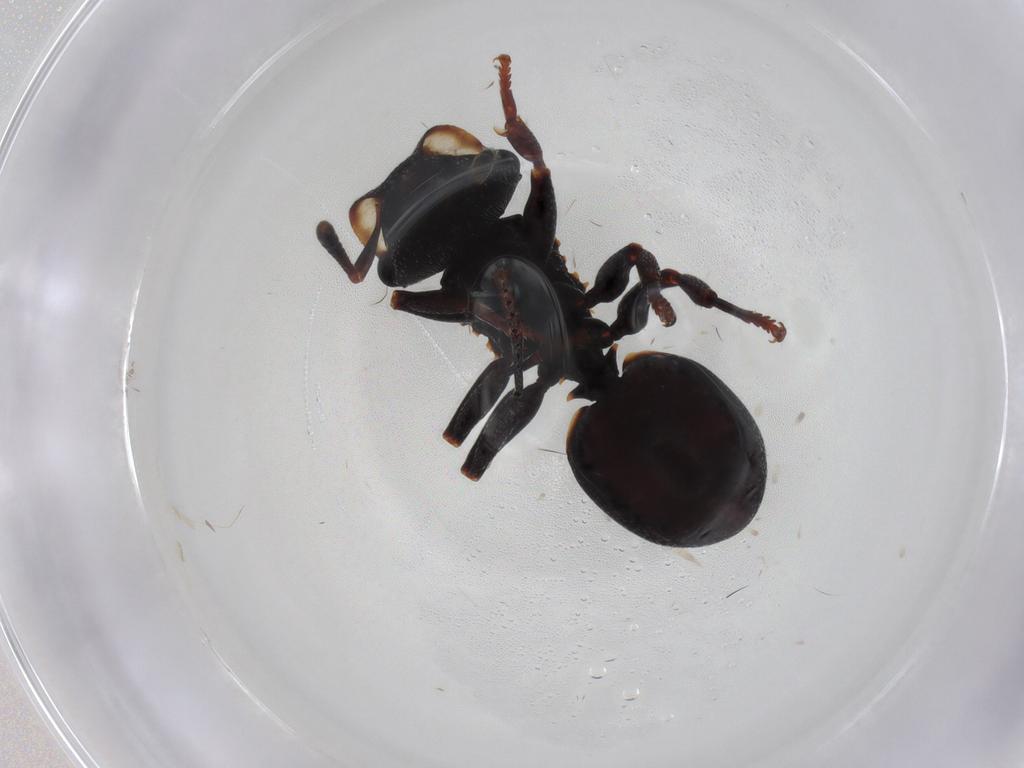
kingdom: Animalia
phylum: Arthropoda
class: Insecta
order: Hymenoptera
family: Formicidae
